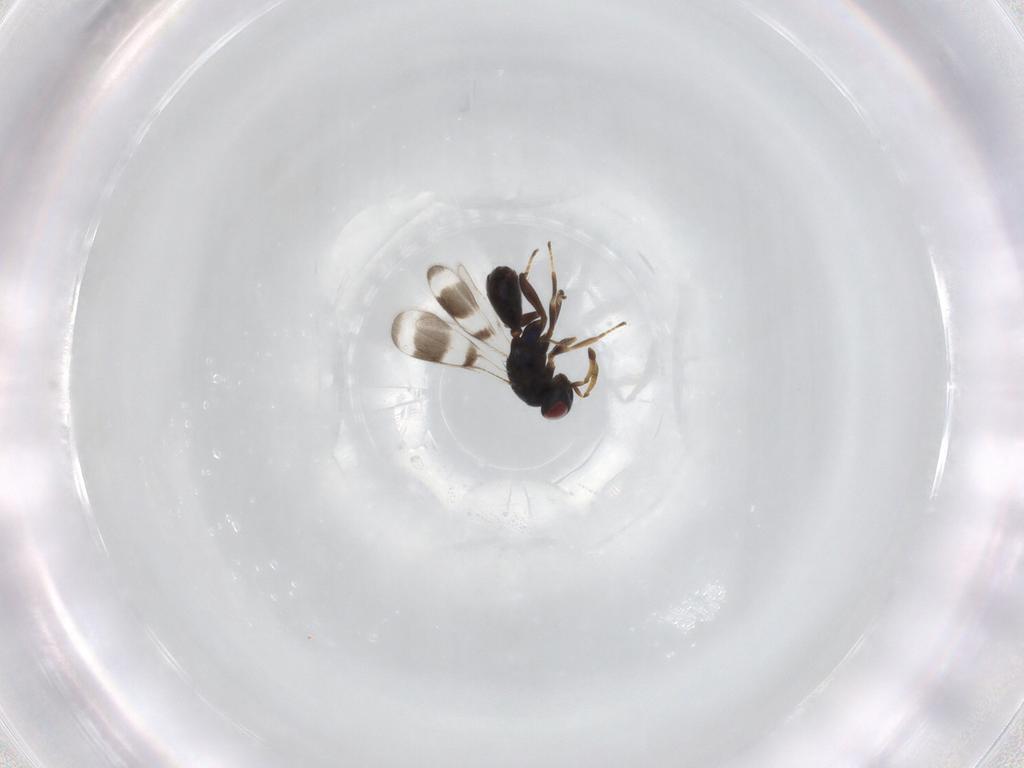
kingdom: Animalia
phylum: Arthropoda
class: Insecta
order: Hymenoptera
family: Pteromalidae
